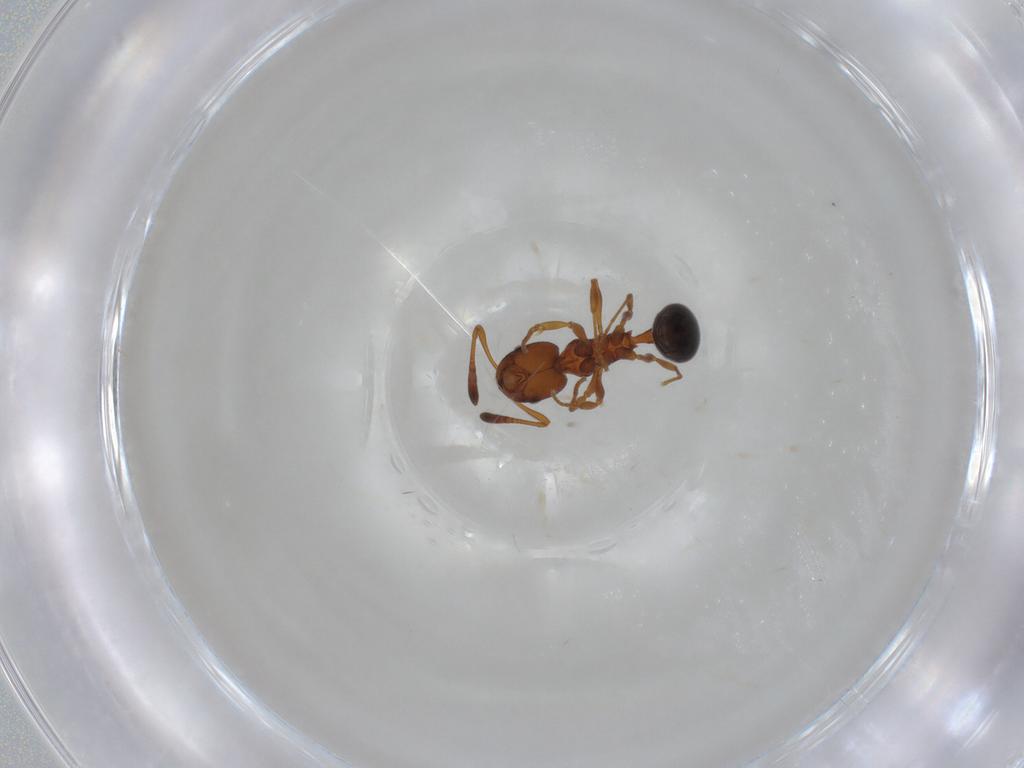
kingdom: Animalia
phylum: Arthropoda
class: Insecta
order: Hymenoptera
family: Formicidae
